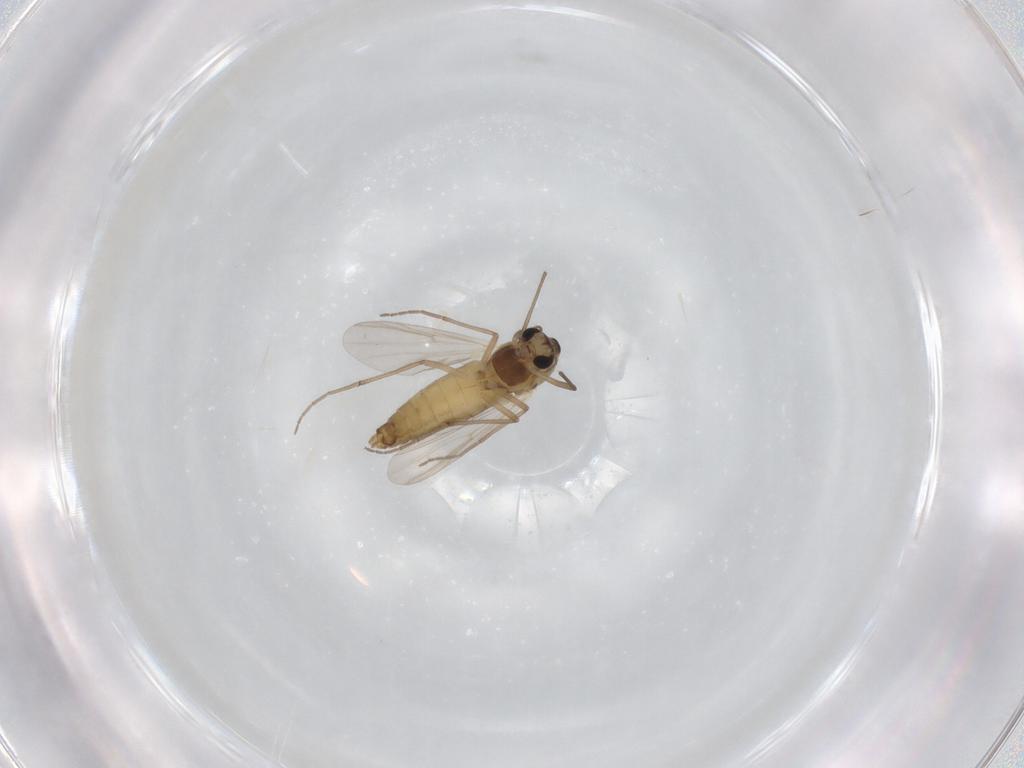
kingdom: Animalia
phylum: Arthropoda
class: Insecta
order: Diptera
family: Chironomidae
